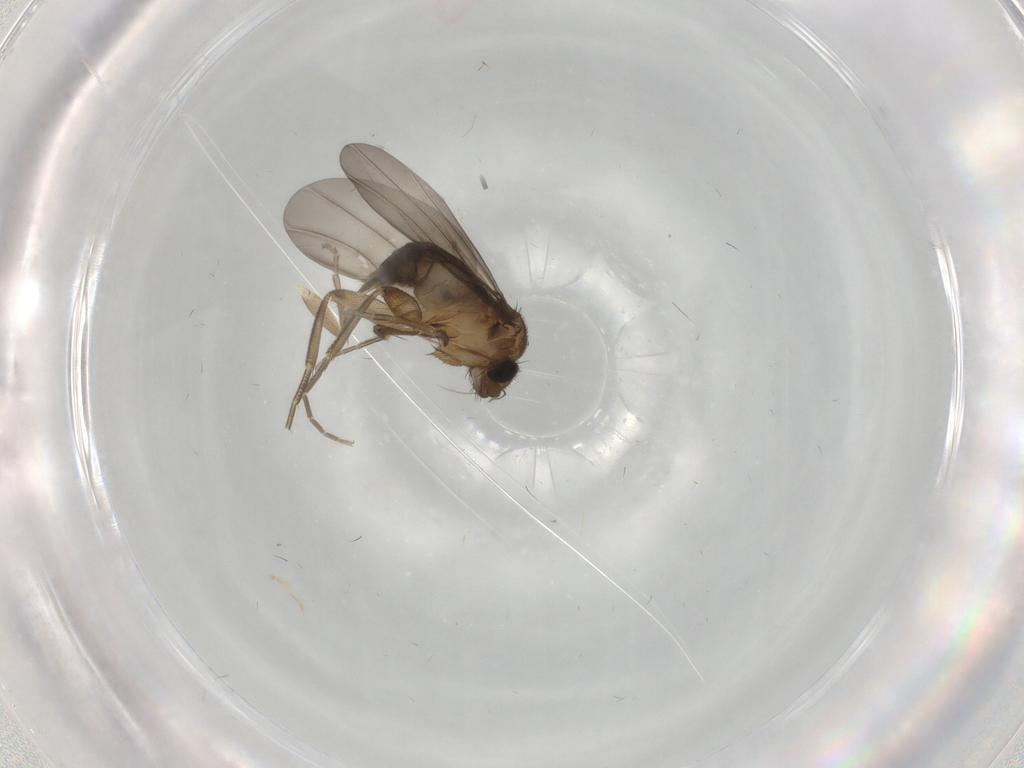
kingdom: Animalia
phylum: Arthropoda
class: Insecta
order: Diptera
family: Phoridae
